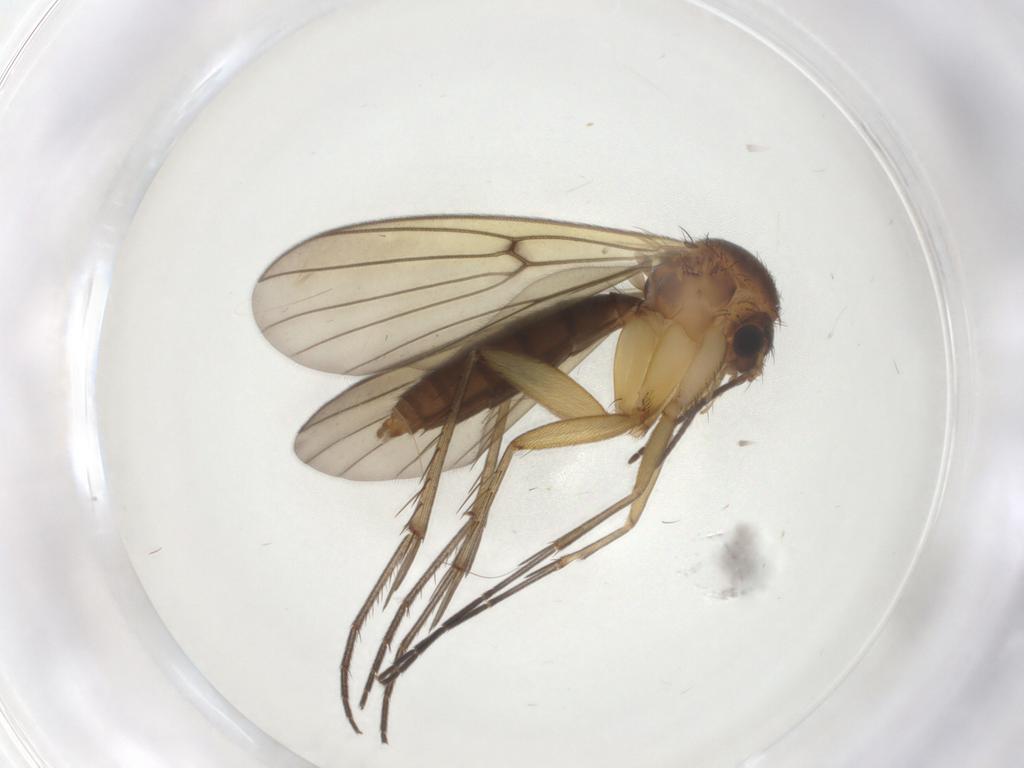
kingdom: Animalia
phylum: Arthropoda
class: Insecta
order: Diptera
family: Mycetophilidae
